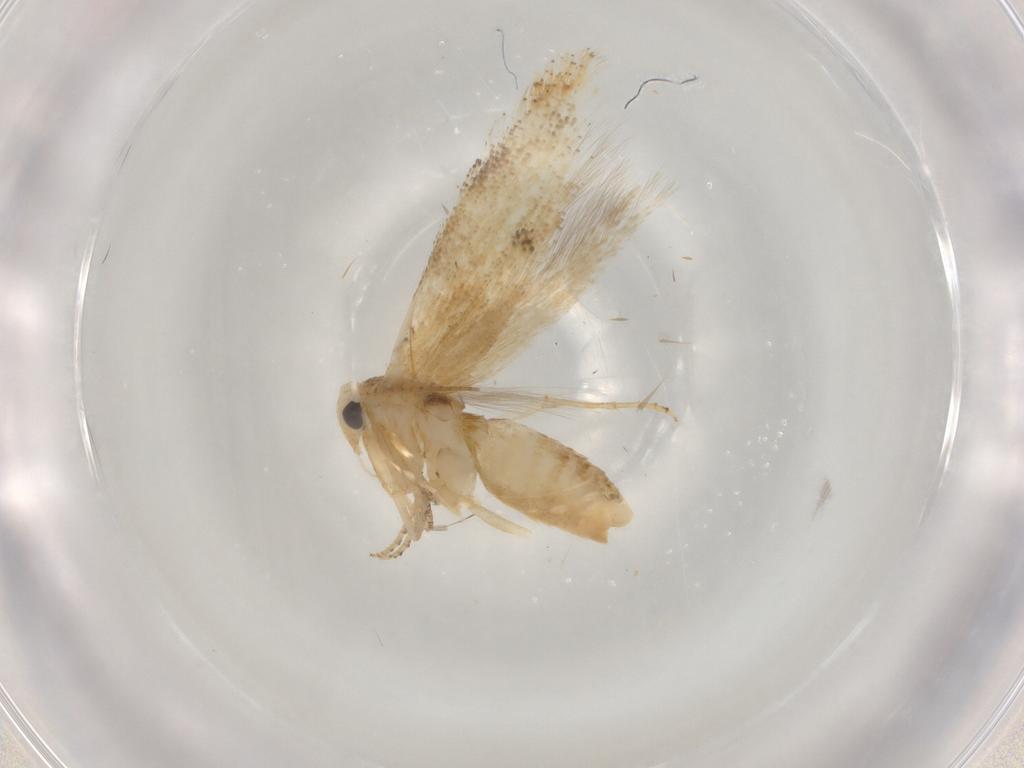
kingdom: Animalia
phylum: Arthropoda
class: Insecta
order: Lepidoptera
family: Bucculatricidae
